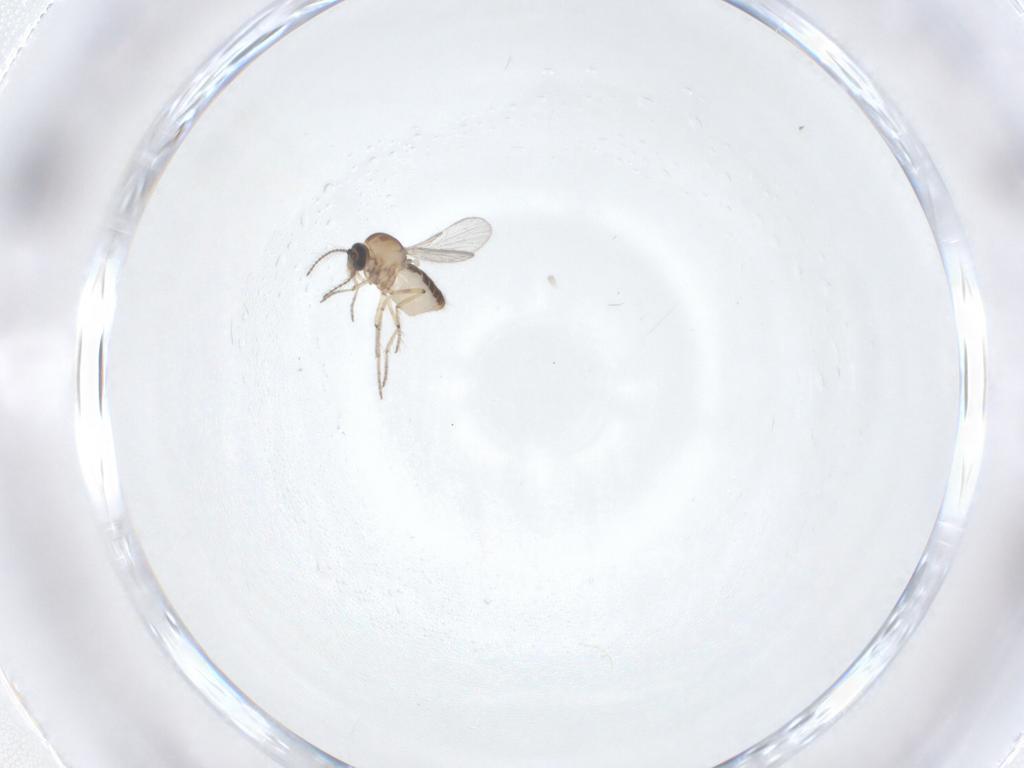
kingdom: Animalia
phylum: Arthropoda
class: Insecta
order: Diptera
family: Ceratopogonidae
